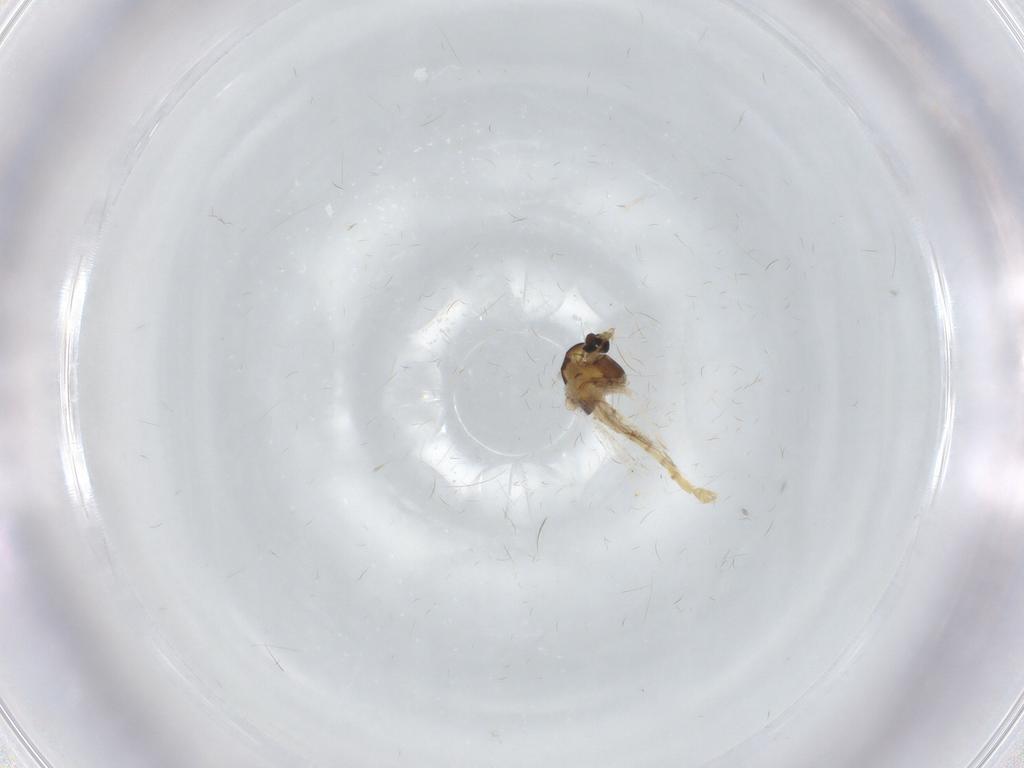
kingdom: Animalia
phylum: Arthropoda
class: Insecta
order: Diptera
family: Chironomidae
